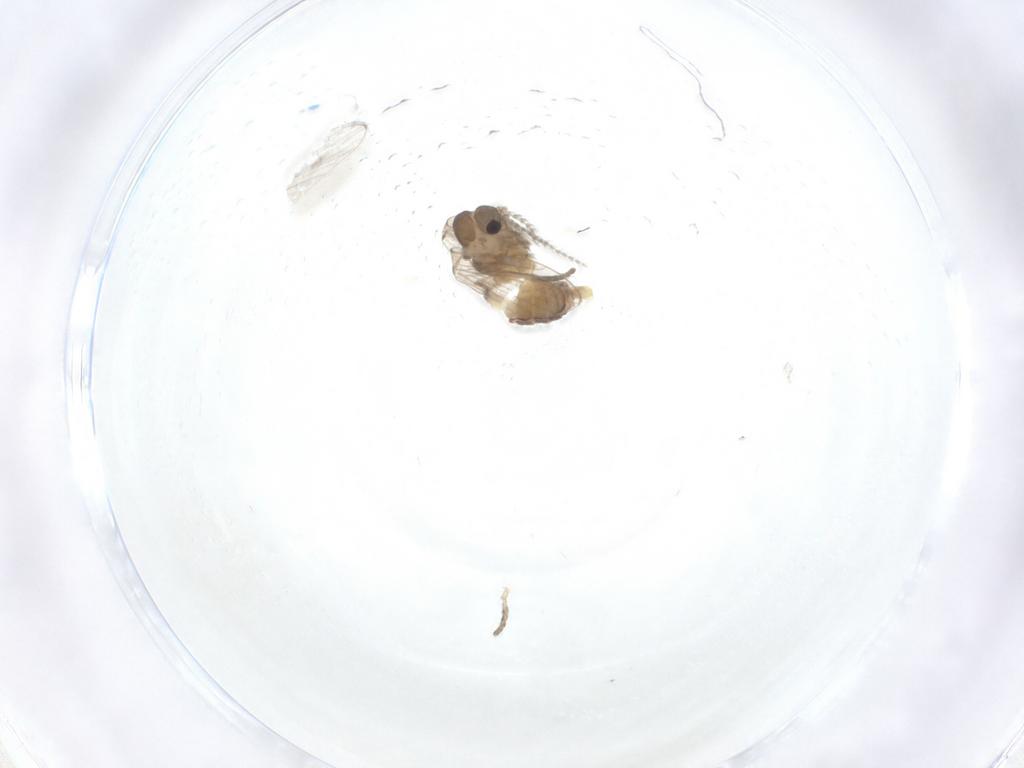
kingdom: Animalia
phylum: Arthropoda
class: Insecta
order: Diptera
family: Psychodidae
